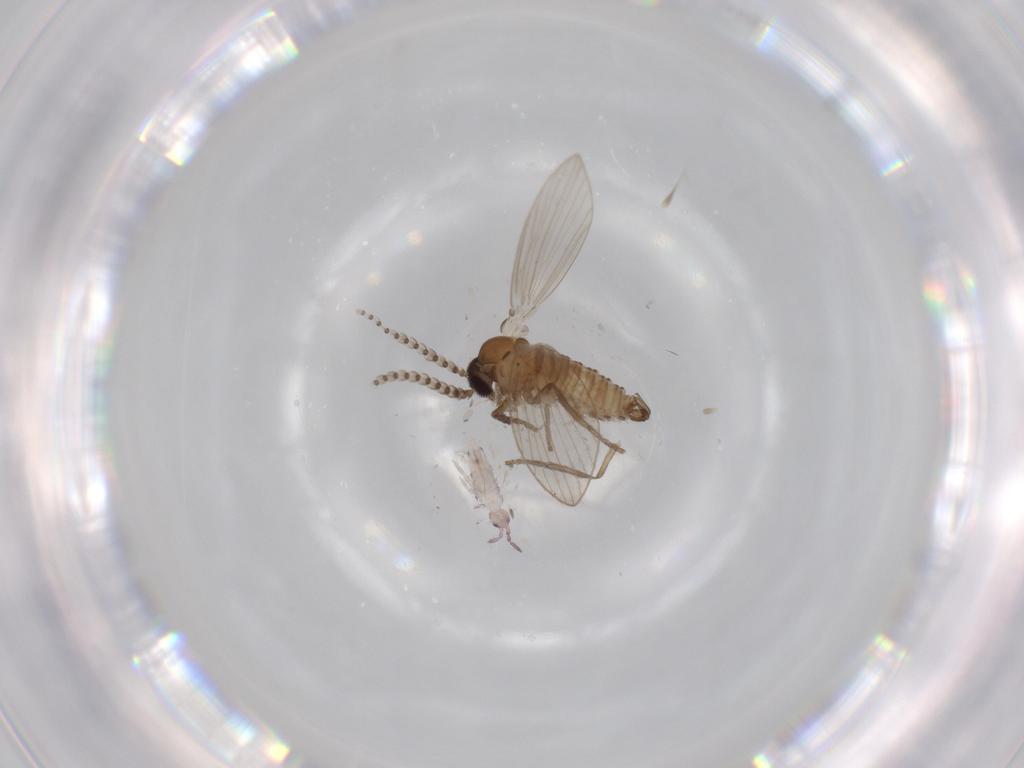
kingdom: Animalia
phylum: Arthropoda
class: Collembola
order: Entomobryomorpha
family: Entomobryidae
